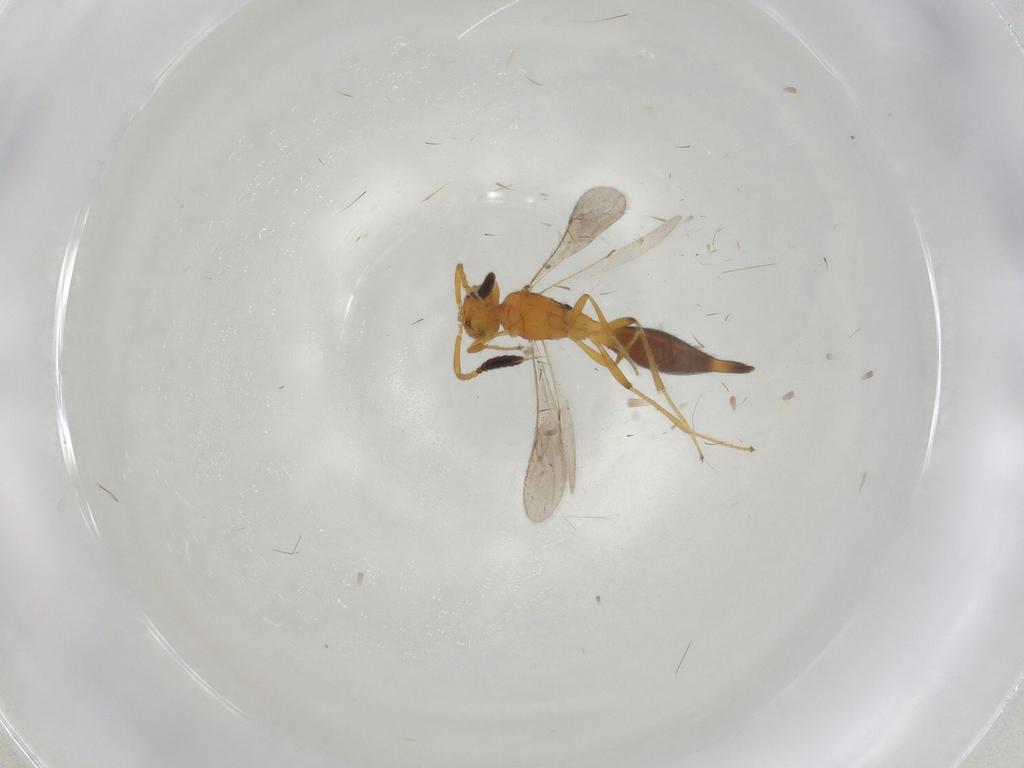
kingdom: Animalia
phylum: Arthropoda
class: Insecta
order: Hymenoptera
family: Scelionidae
